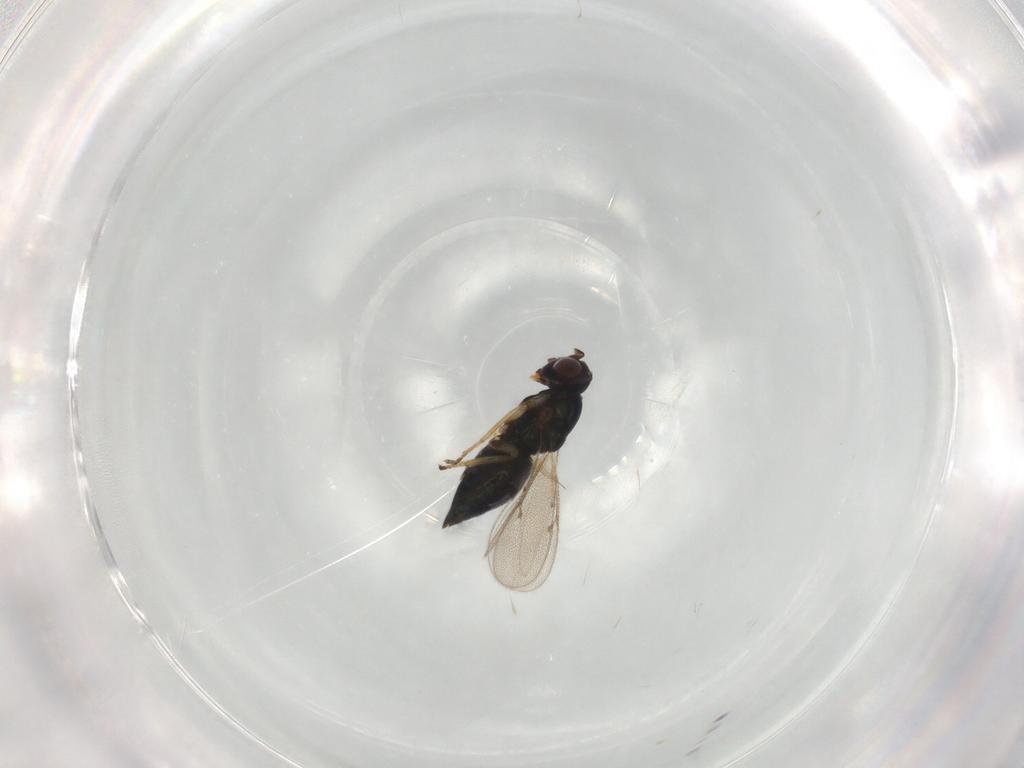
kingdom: Animalia
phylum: Arthropoda
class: Insecta
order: Hymenoptera
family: Eulophidae
